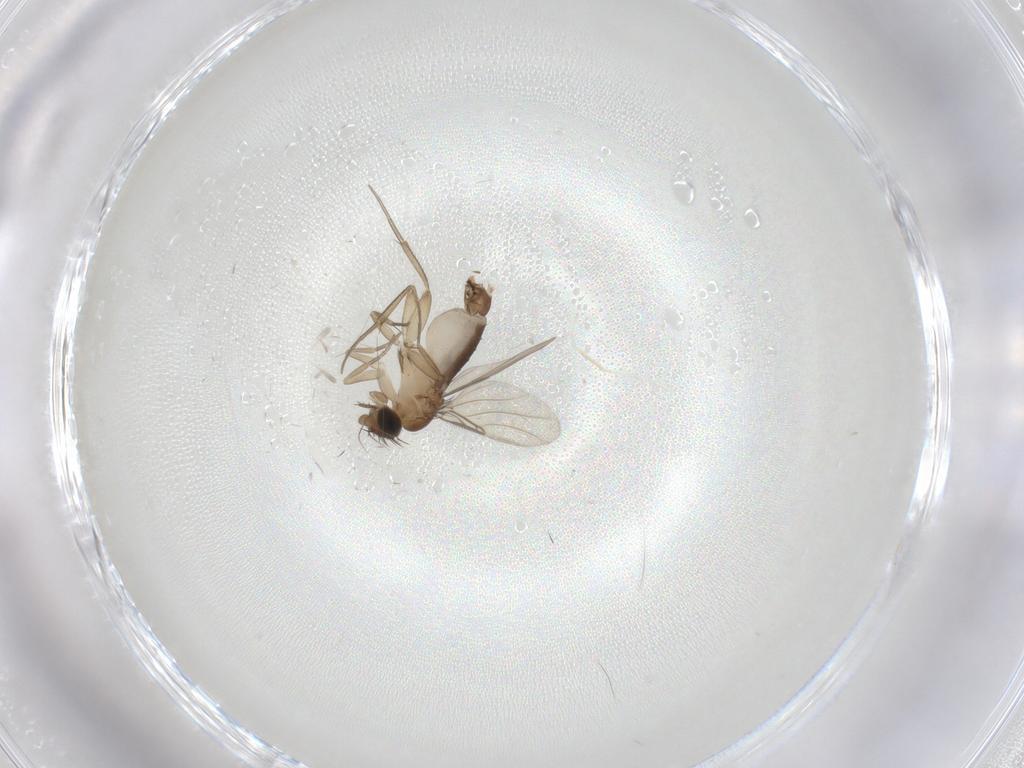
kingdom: Animalia
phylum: Arthropoda
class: Insecta
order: Diptera
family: Phoridae
